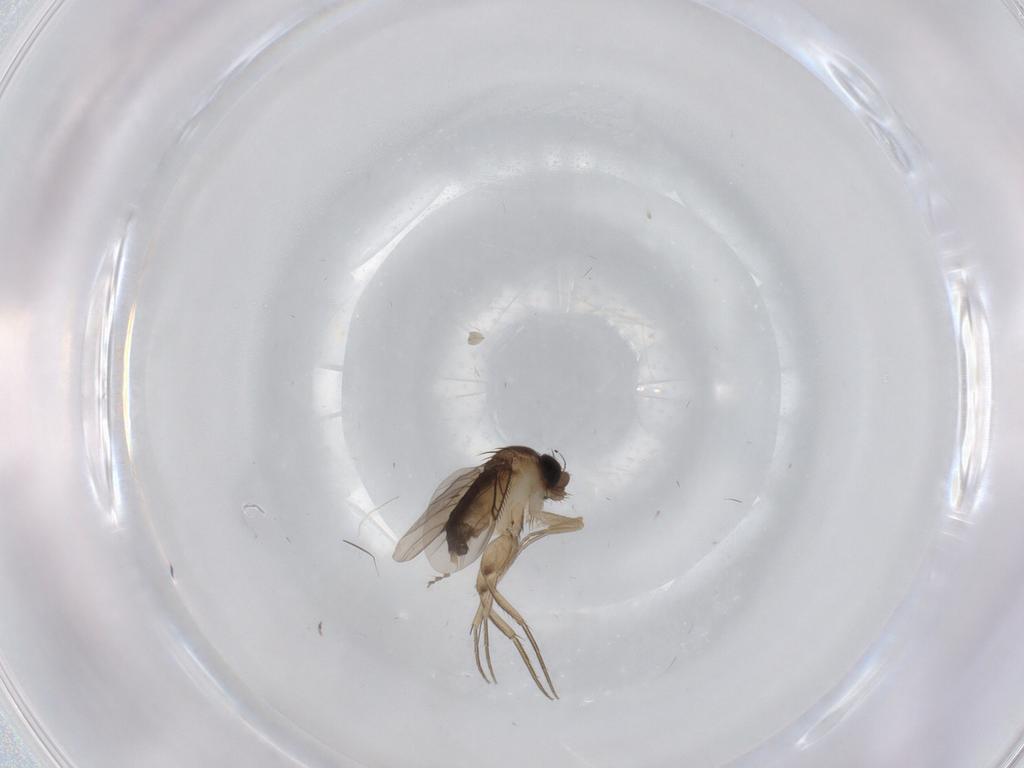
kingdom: Animalia
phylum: Arthropoda
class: Insecta
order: Diptera
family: Phoridae
